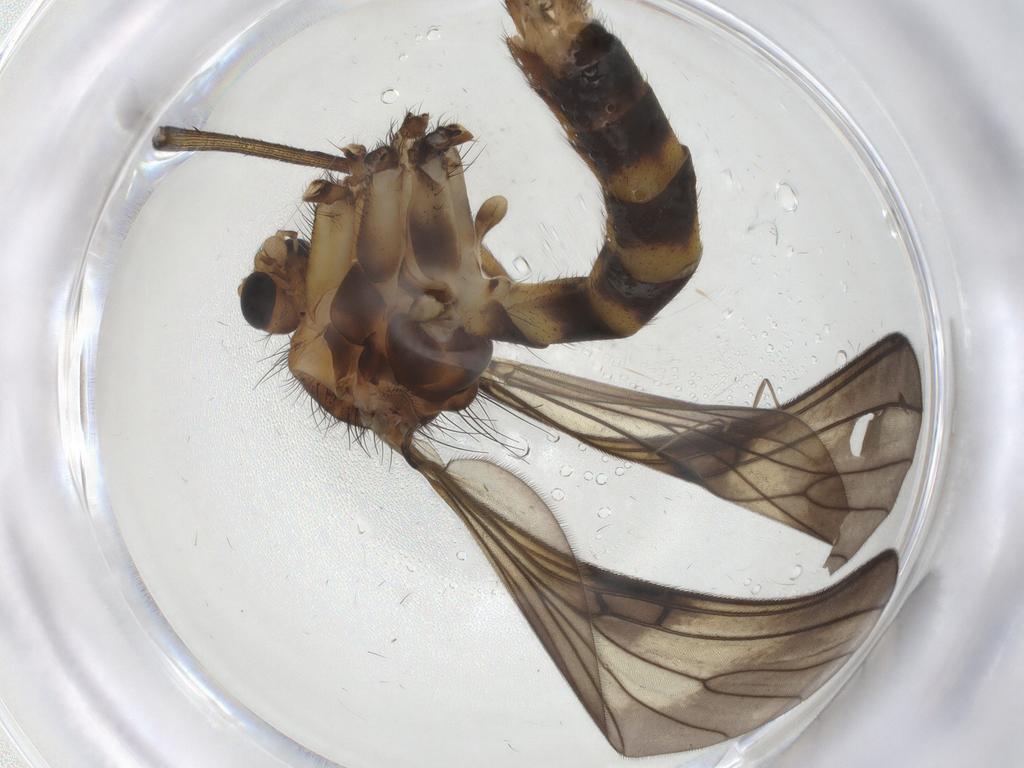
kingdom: Animalia
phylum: Arthropoda
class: Insecta
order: Diptera
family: Mycetophilidae
